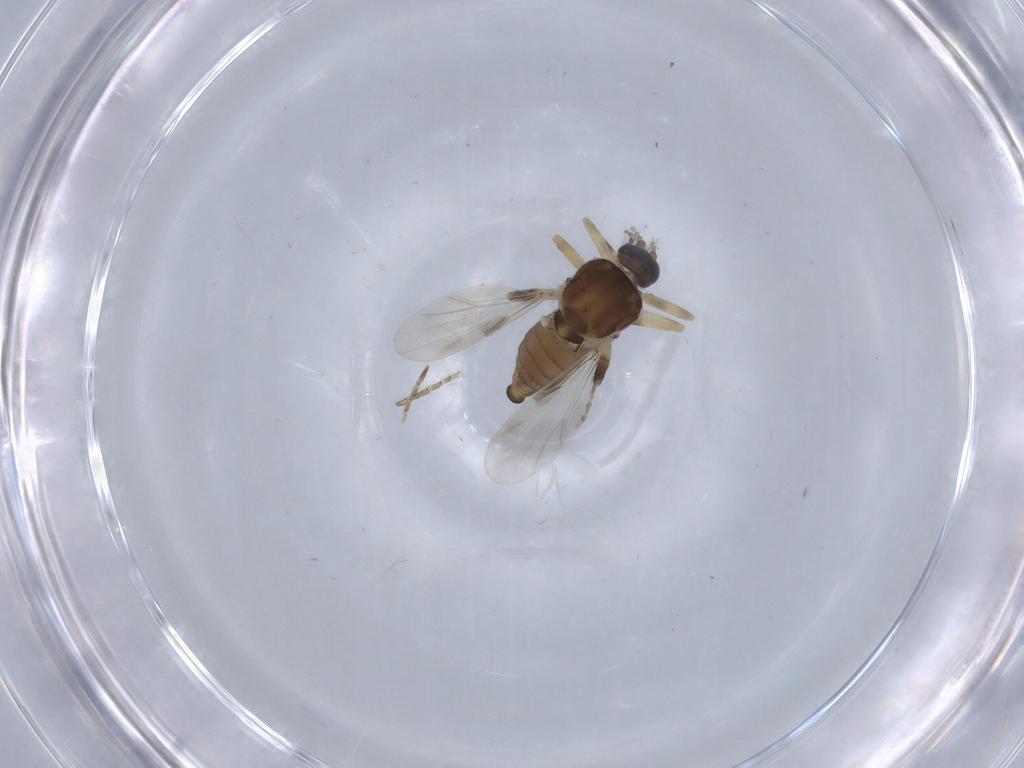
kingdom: Animalia
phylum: Arthropoda
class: Insecta
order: Diptera
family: Ceratopogonidae
